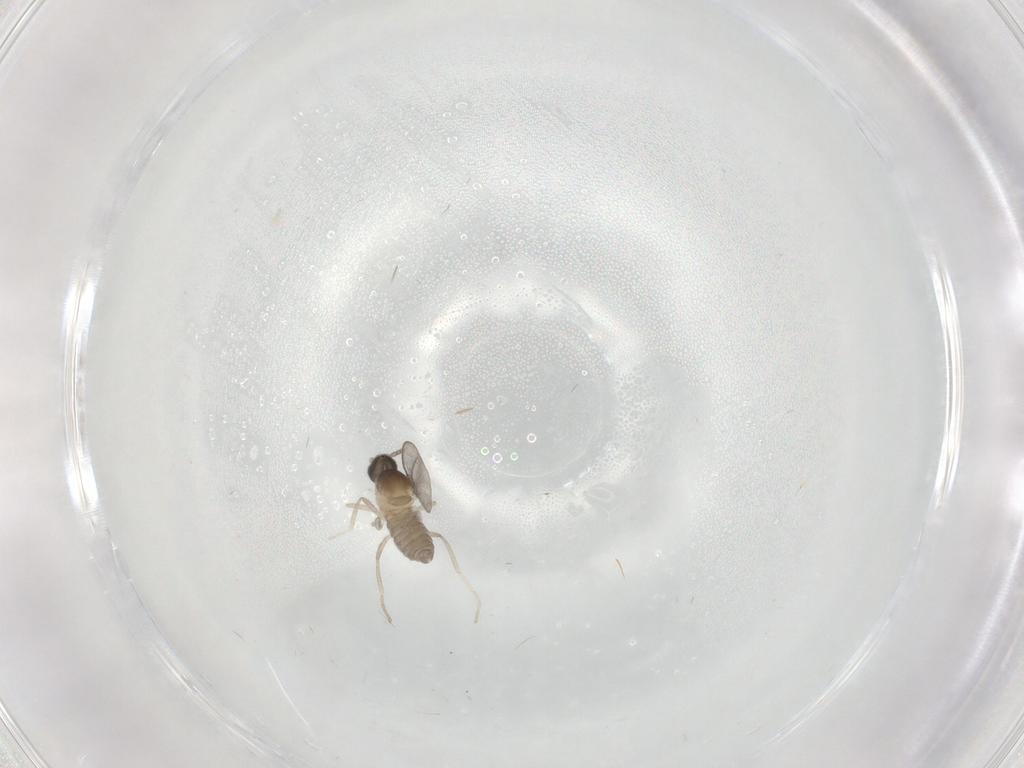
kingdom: Animalia
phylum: Arthropoda
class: Insecta
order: Diptera
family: Cecidomyiidae
